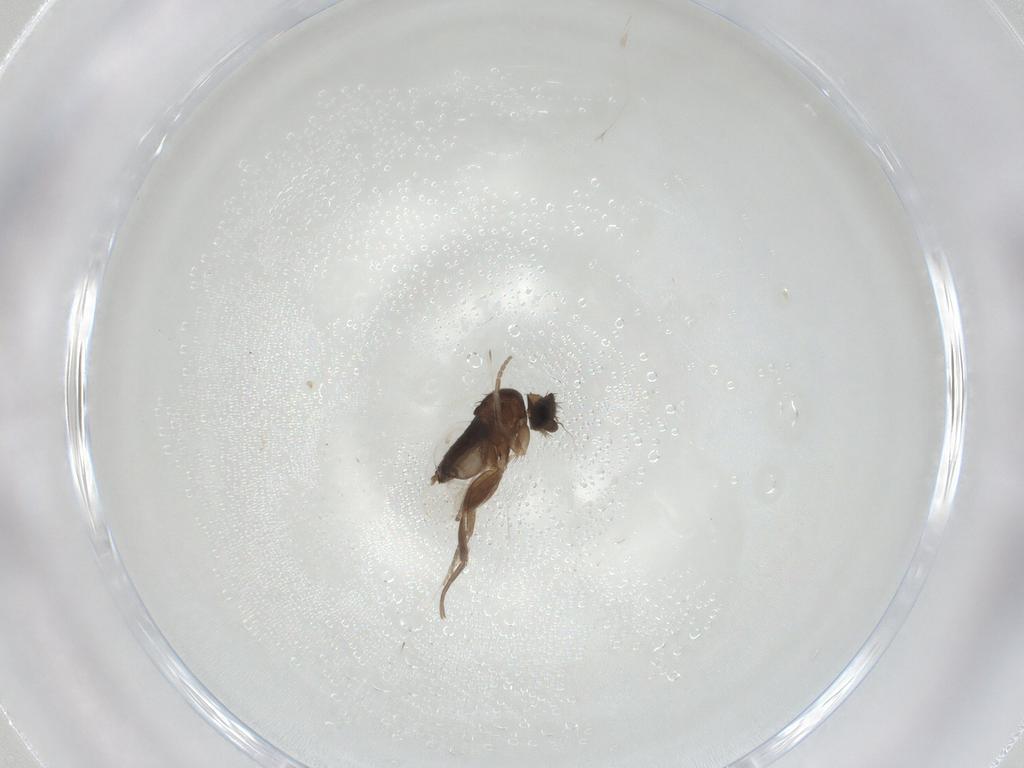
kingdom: Animalia
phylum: Arthropoda
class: Insecta
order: Diptera
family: Phoridae
